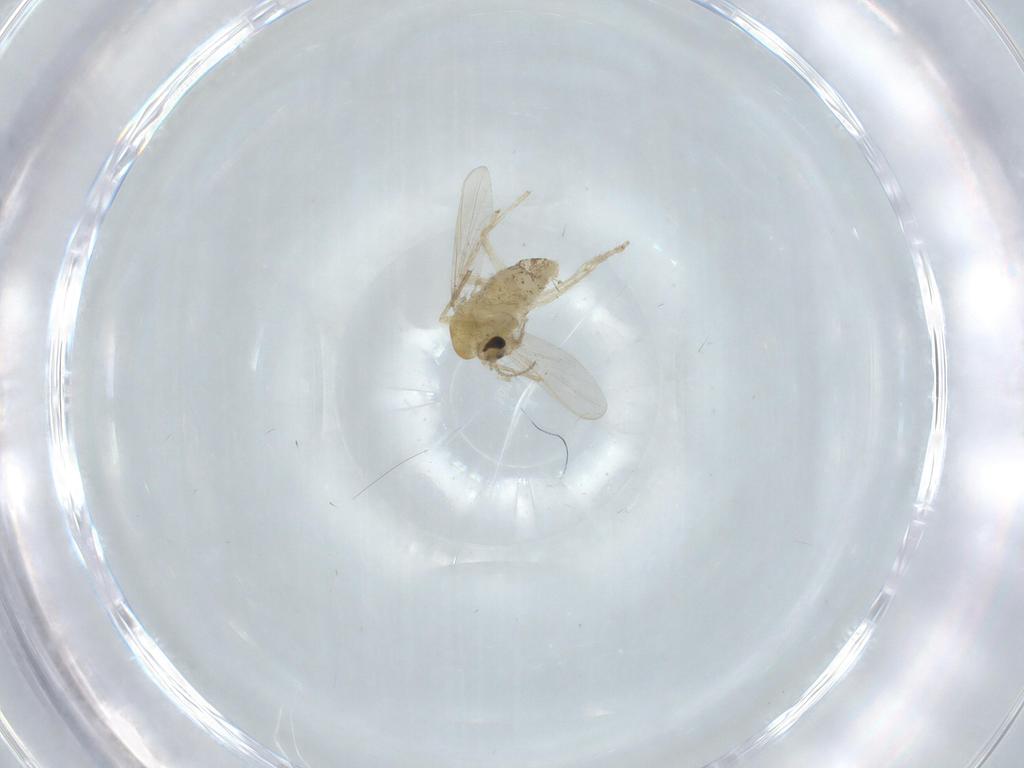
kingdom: Animalia
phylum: Arthropoda
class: Insecta
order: Diptera
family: Chironomidae
